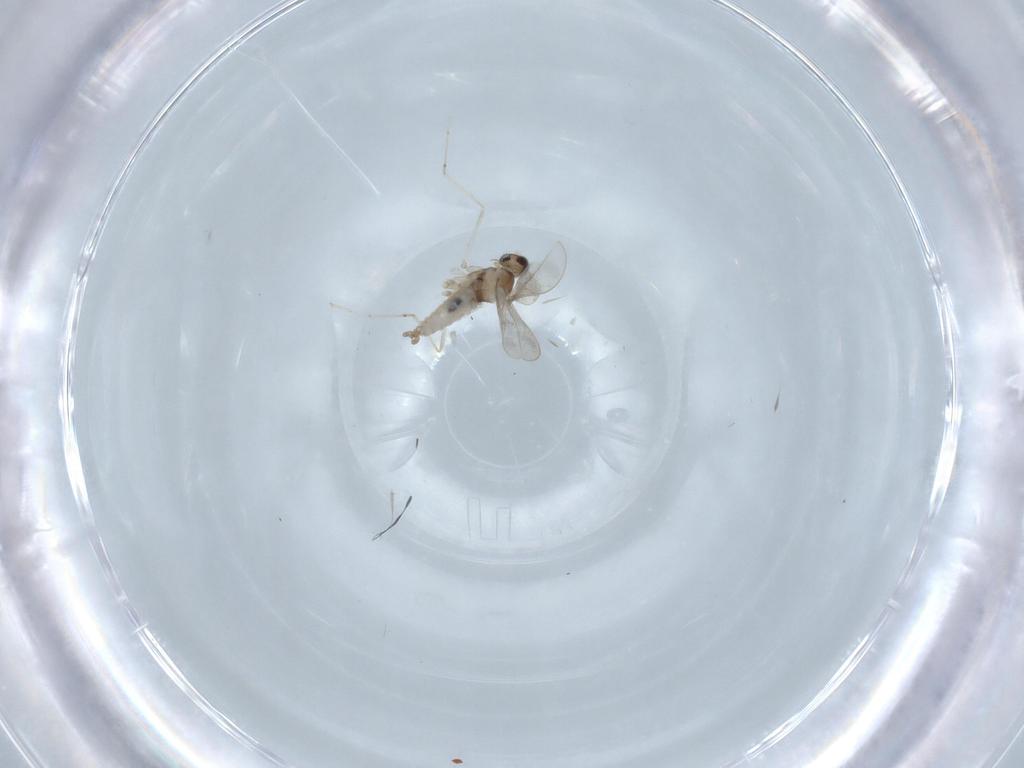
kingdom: Animalia
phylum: Arthropoda
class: Insecta
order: Diptera
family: Cecidomyiidae
